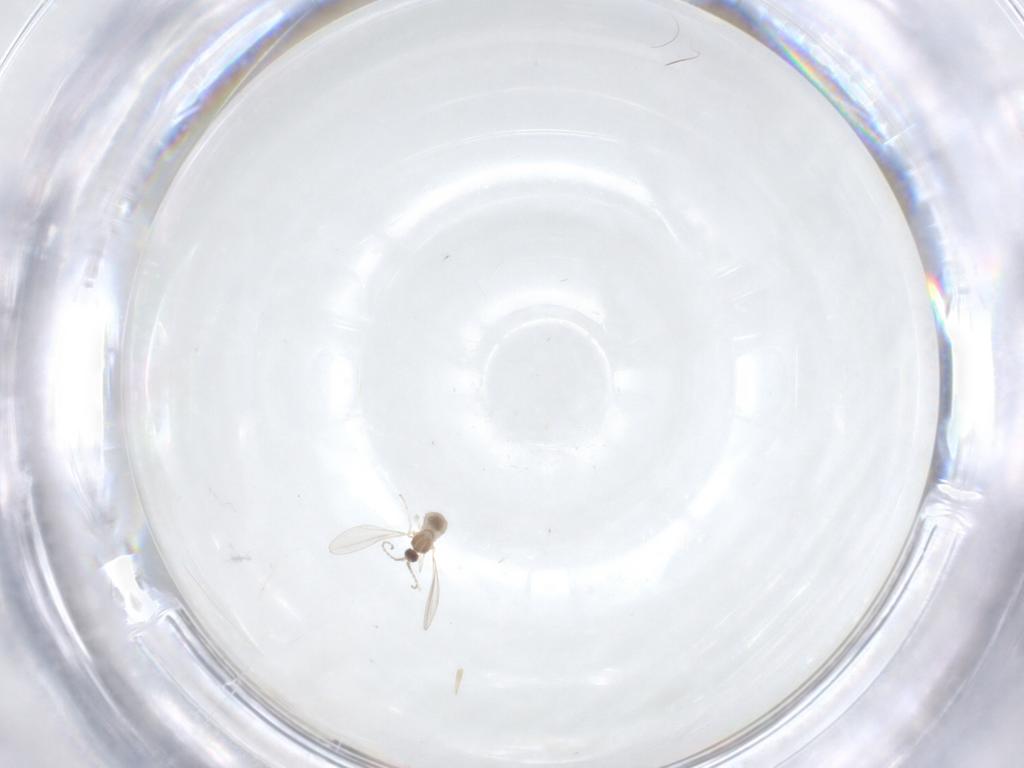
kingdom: Animalia
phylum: Arthropoda
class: Insecta
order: Diptera
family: Cecidomyiidae
